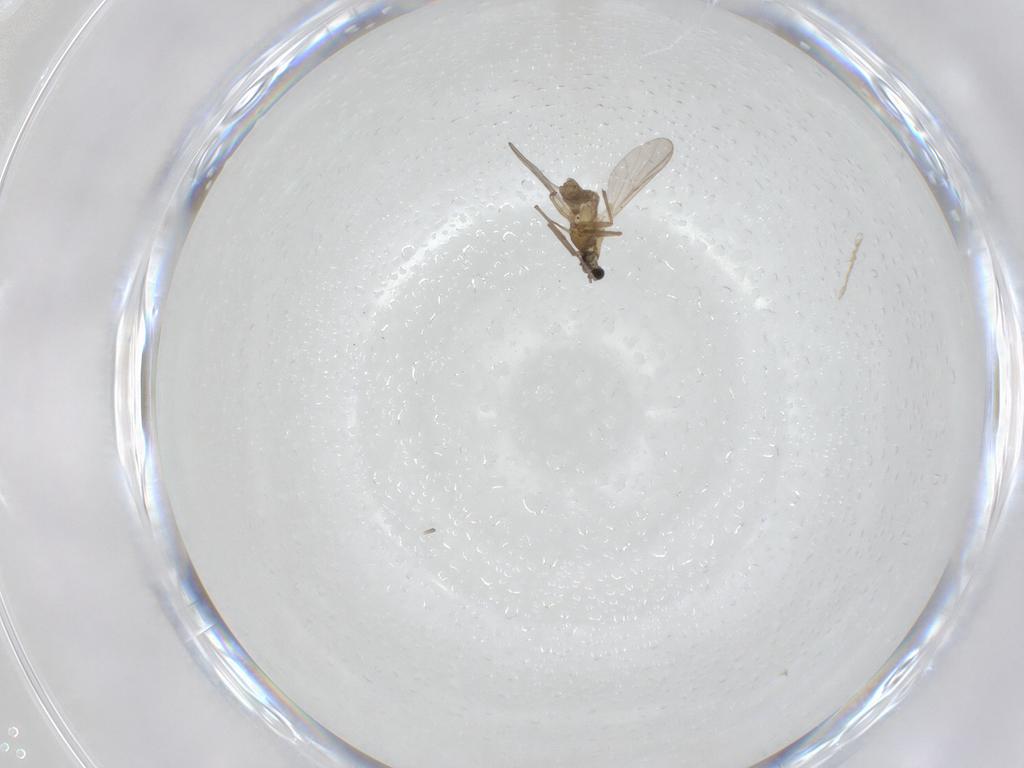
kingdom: Animalia
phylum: Arthropoda
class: Insecta
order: Diptera
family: Chironomidae
